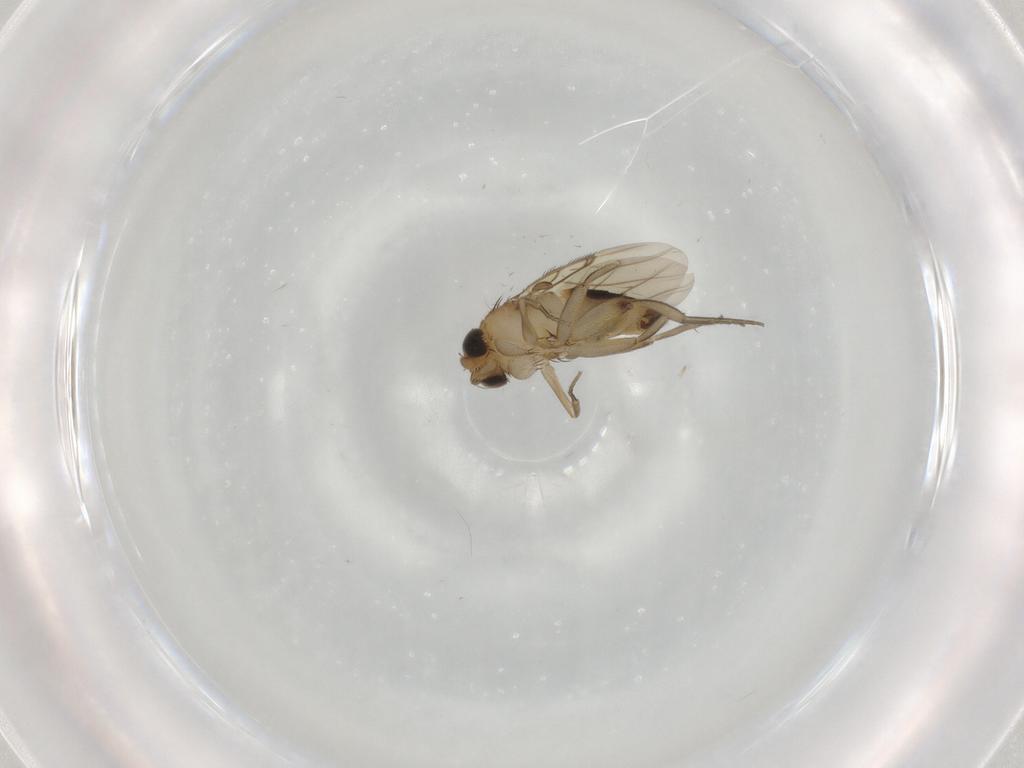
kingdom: Animalia
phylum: Arthropoda
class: Insecta
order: Diptera
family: Phoridae
